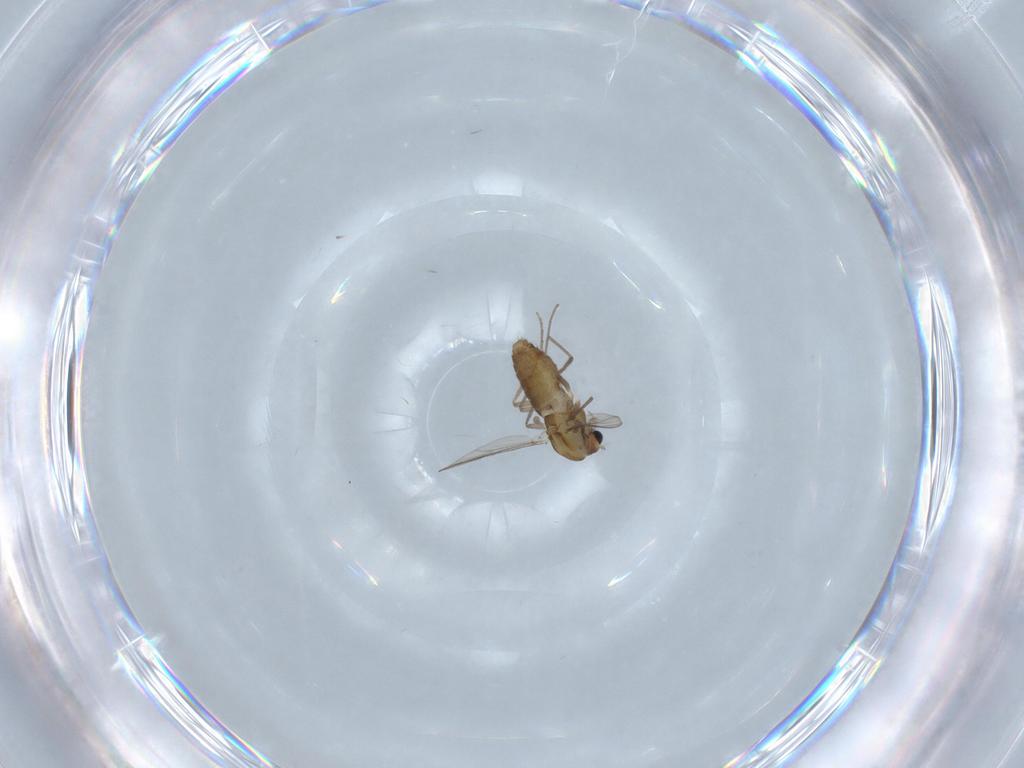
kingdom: Animalia
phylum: Arthropoda
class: Insecta
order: Diptera
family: Chironomidae
